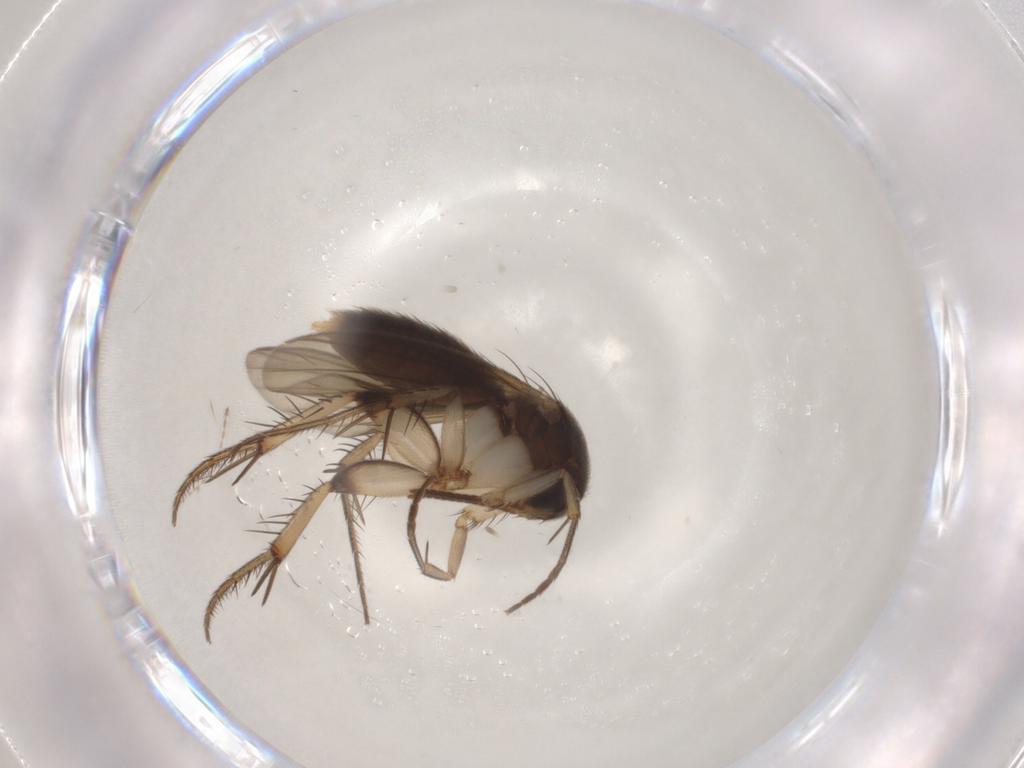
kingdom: Animalia
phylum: Arthropoda
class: Insecta
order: Diptera
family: Mycetophilidae
